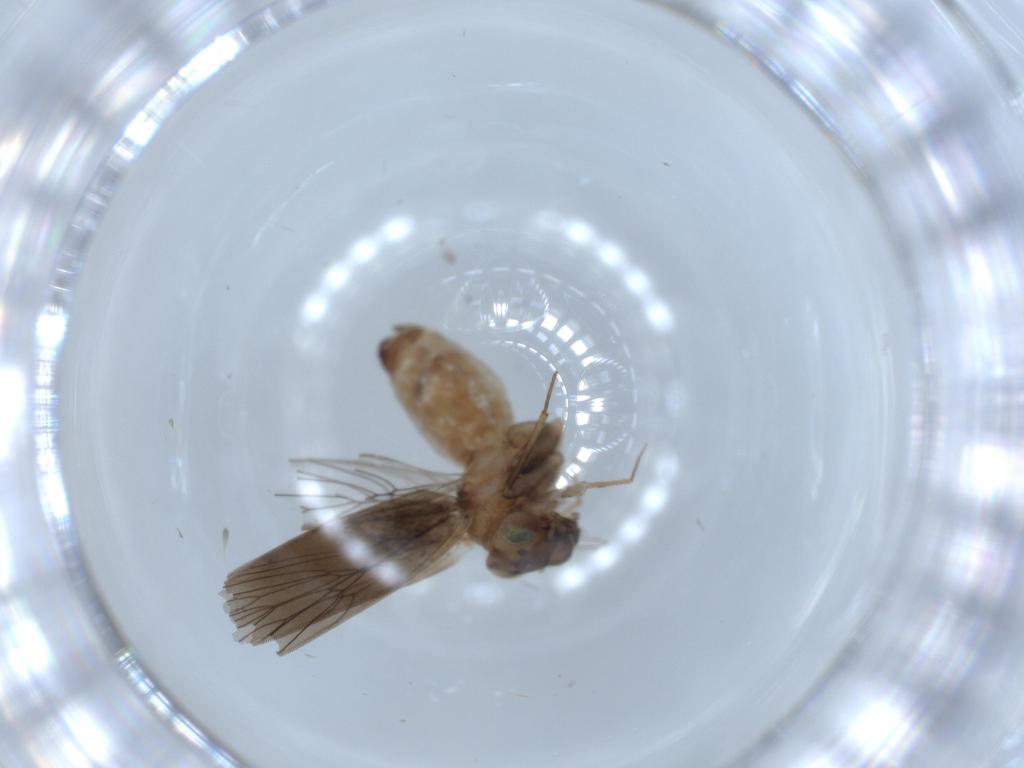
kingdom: Animalia
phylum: Arthropoda
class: Insecta
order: Psocodea
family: Lepidopsocidae
